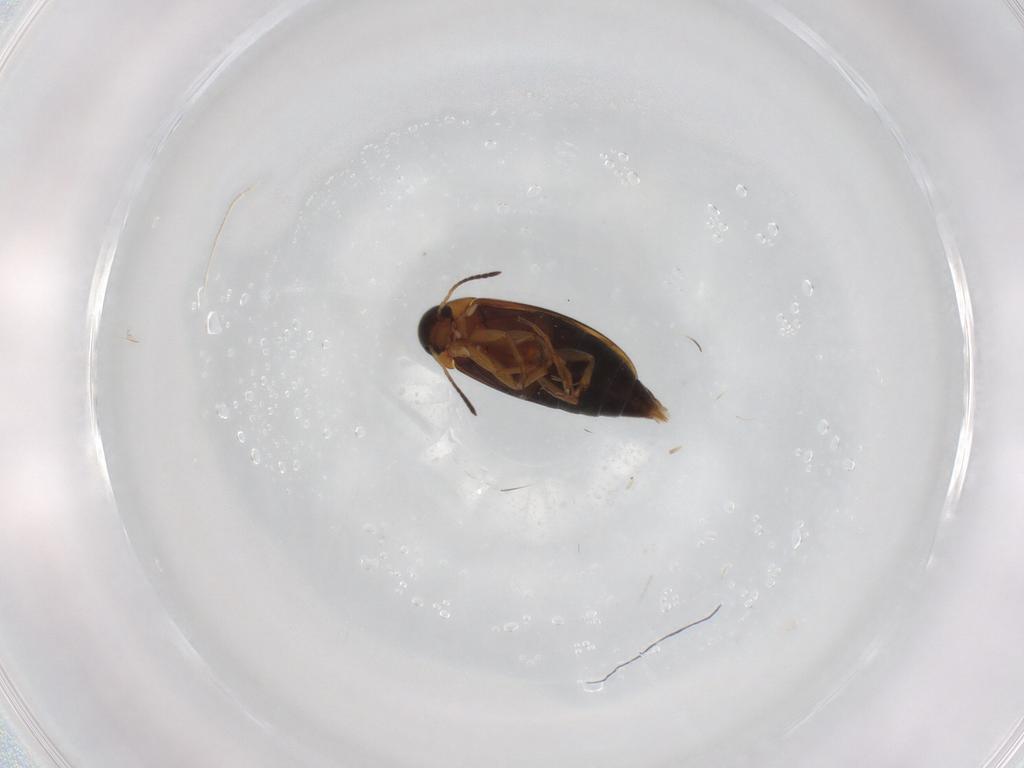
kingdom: Animalia
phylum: Arthropoda
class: Insecta
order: Coleoptera
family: Scraptiidae
